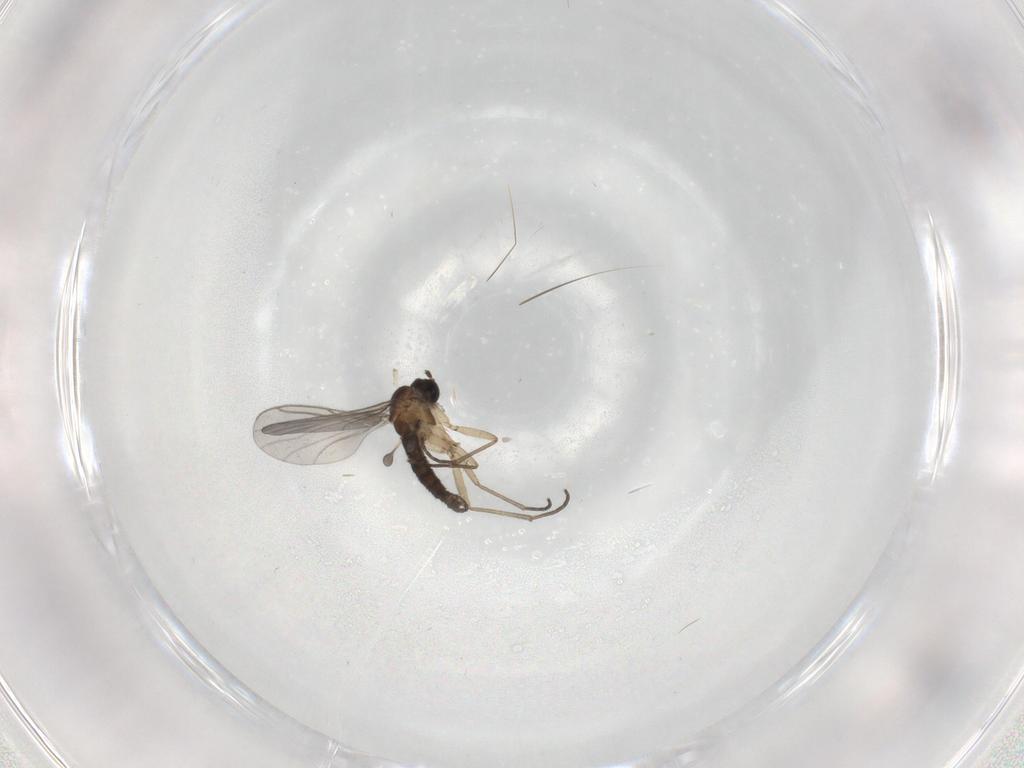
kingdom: Animalia
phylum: Arthropoda
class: Insecta
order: Diptera
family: Sciaridae
